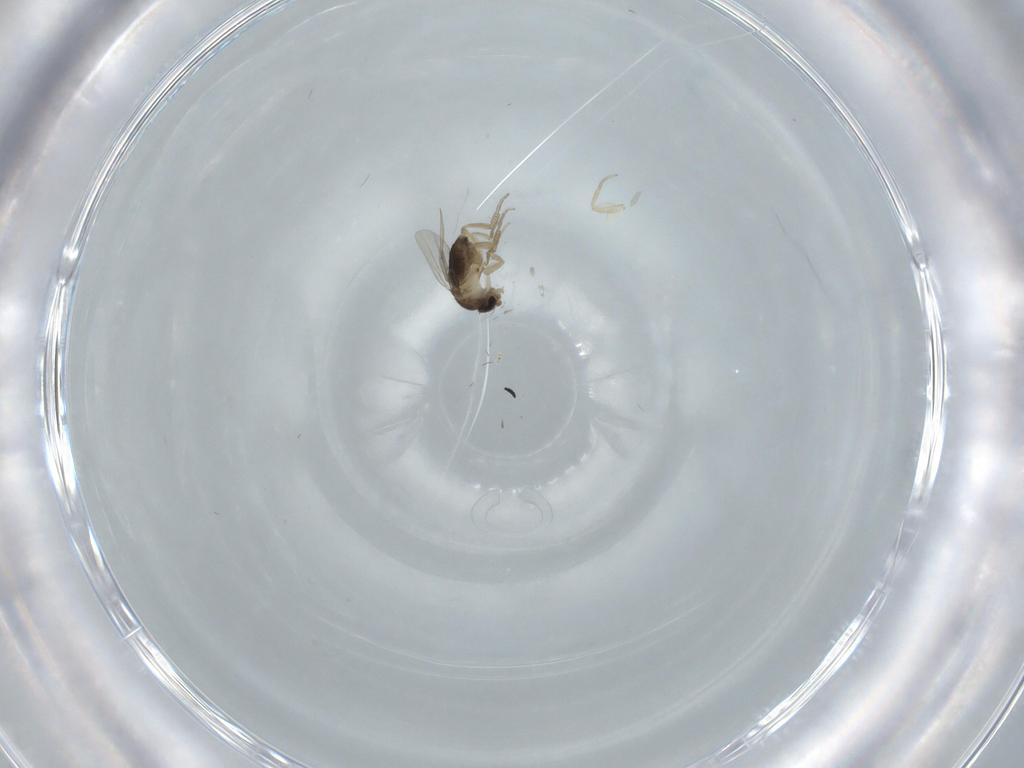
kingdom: Animalia
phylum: Arthropoda
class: Insecta
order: Diptera
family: Phoridae
